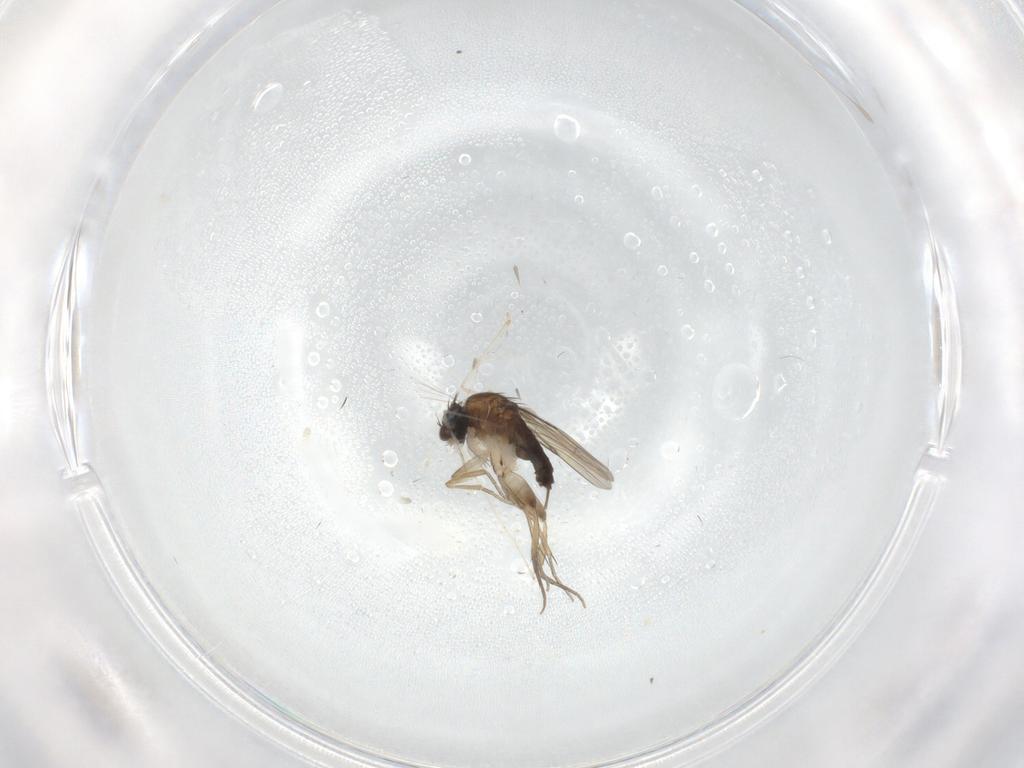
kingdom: Animalia
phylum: Arthropoda
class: Insecta
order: Diptera
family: Phoridae
